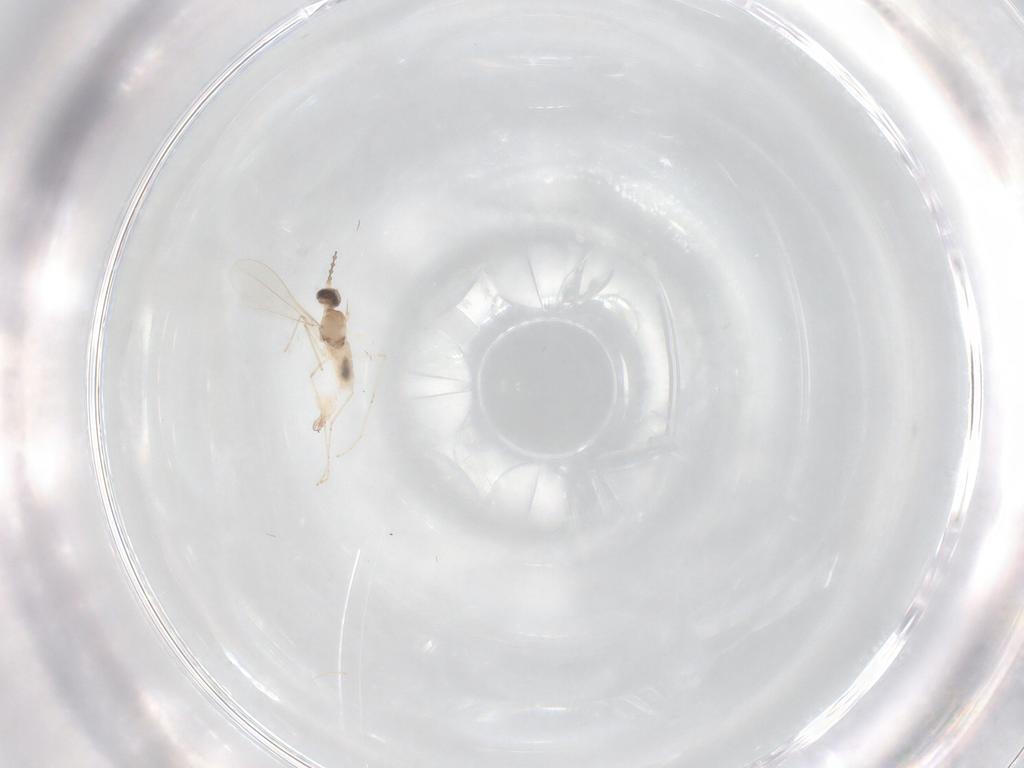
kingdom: Animalia
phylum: Arthropoda
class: Insecta
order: Diptera
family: Cecidomyiidae
